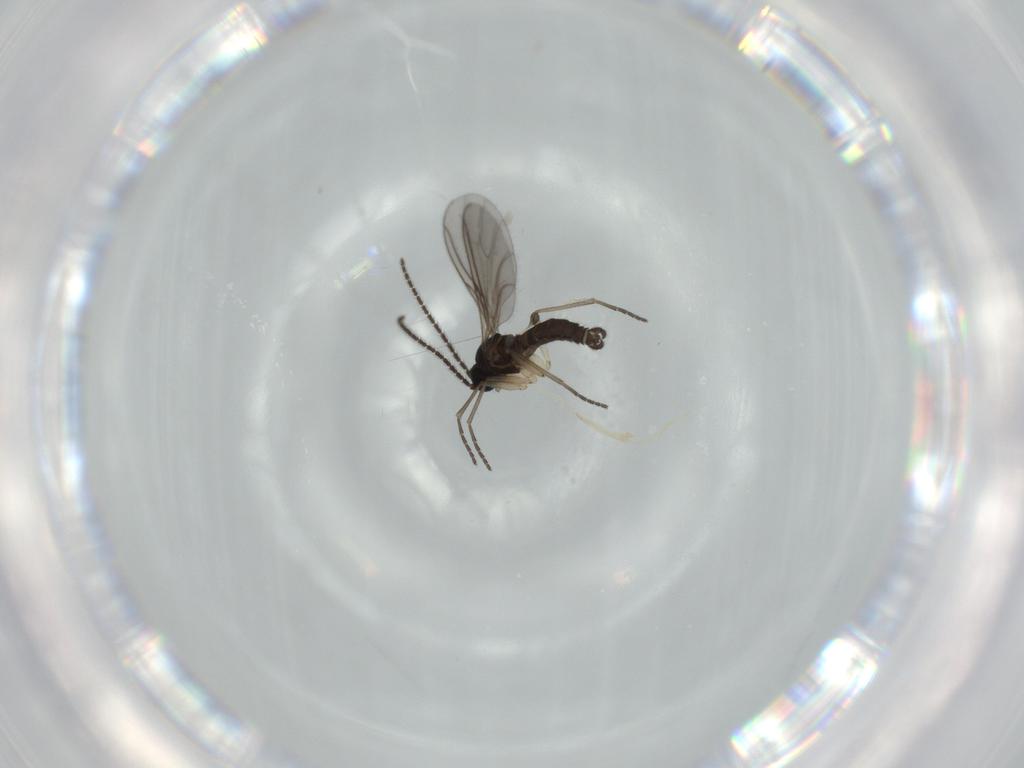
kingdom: Animalia
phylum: Arthropoda
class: Insecta
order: Diptera
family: Sciaridae
